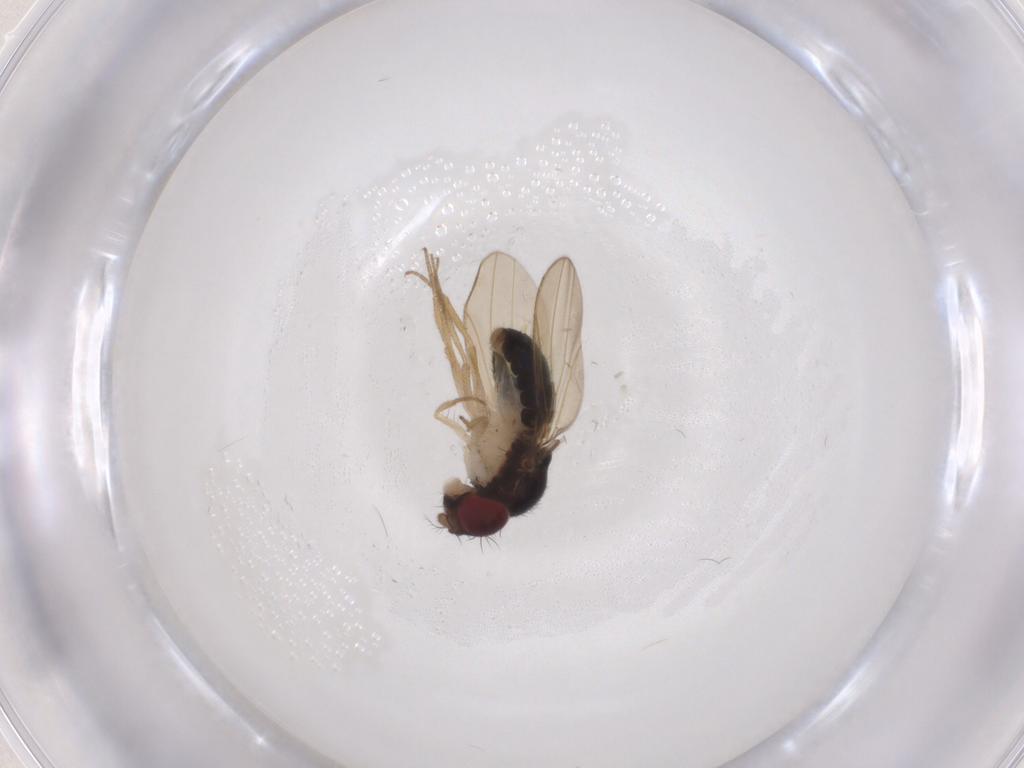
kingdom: Animalia
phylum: Arthropoda
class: Insecta
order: Diptera
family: Drosophilidae
